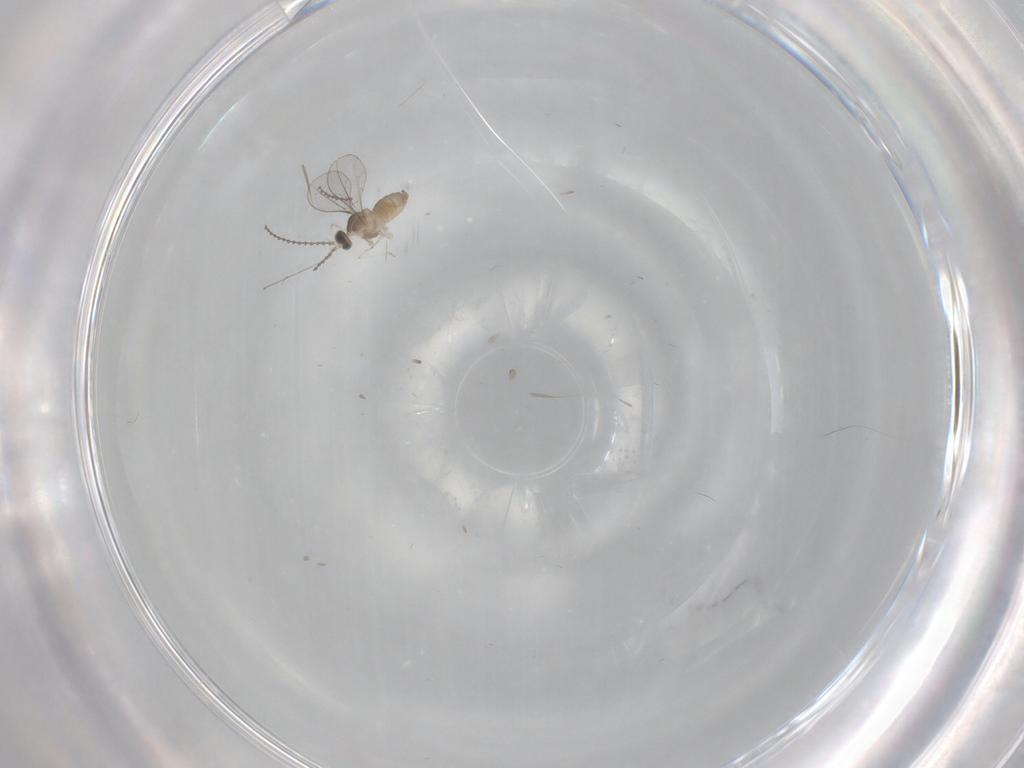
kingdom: Animalia
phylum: Arthropoda
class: Insecta
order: Diptera
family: Cecidomyiidae
